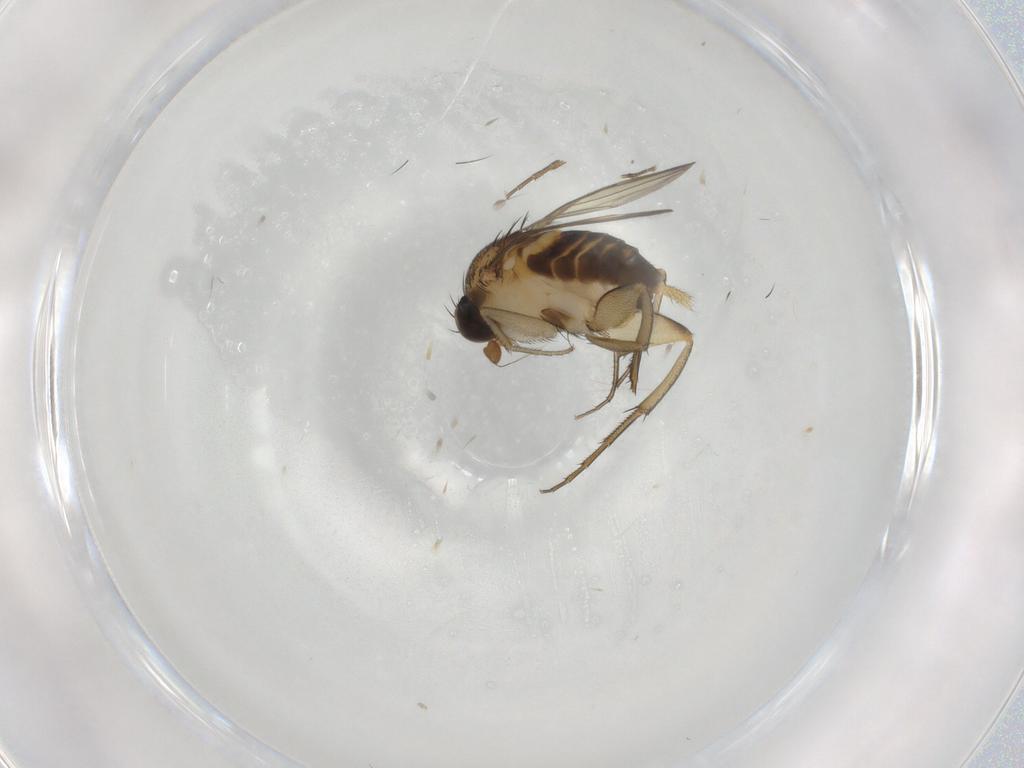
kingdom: Animalia
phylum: Arthropoda
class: Insecta
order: Diptera
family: Phoridae
